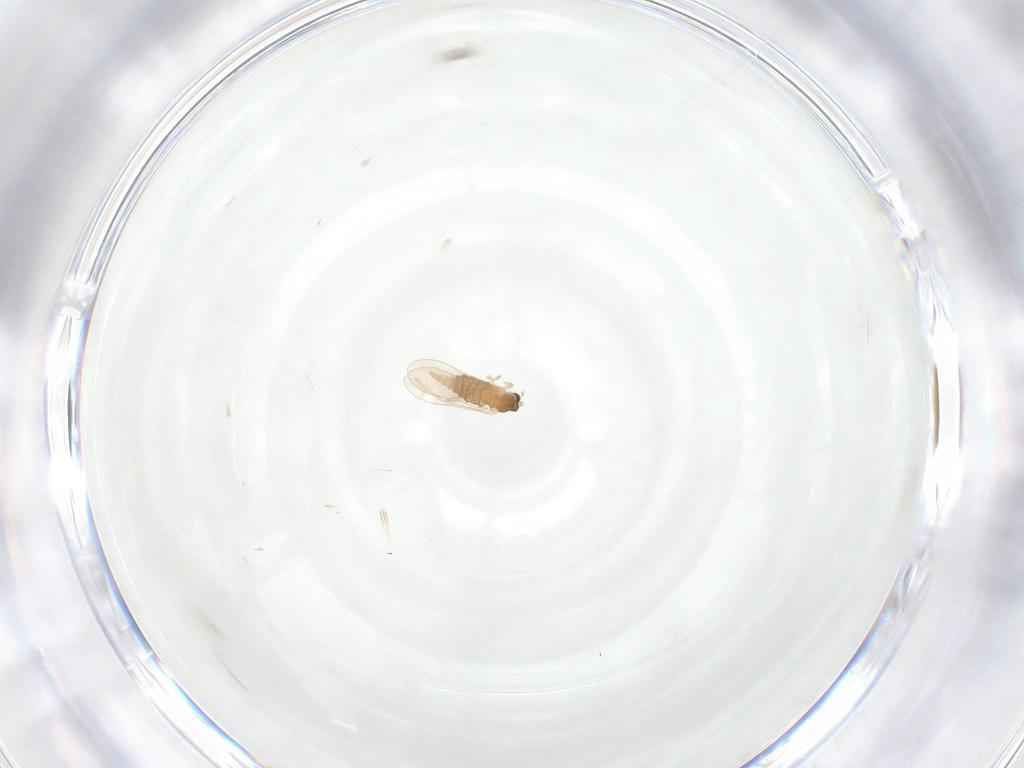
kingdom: Animalia
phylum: Arthropoda
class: Insecta
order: Diptera
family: Cecidomyiidae
